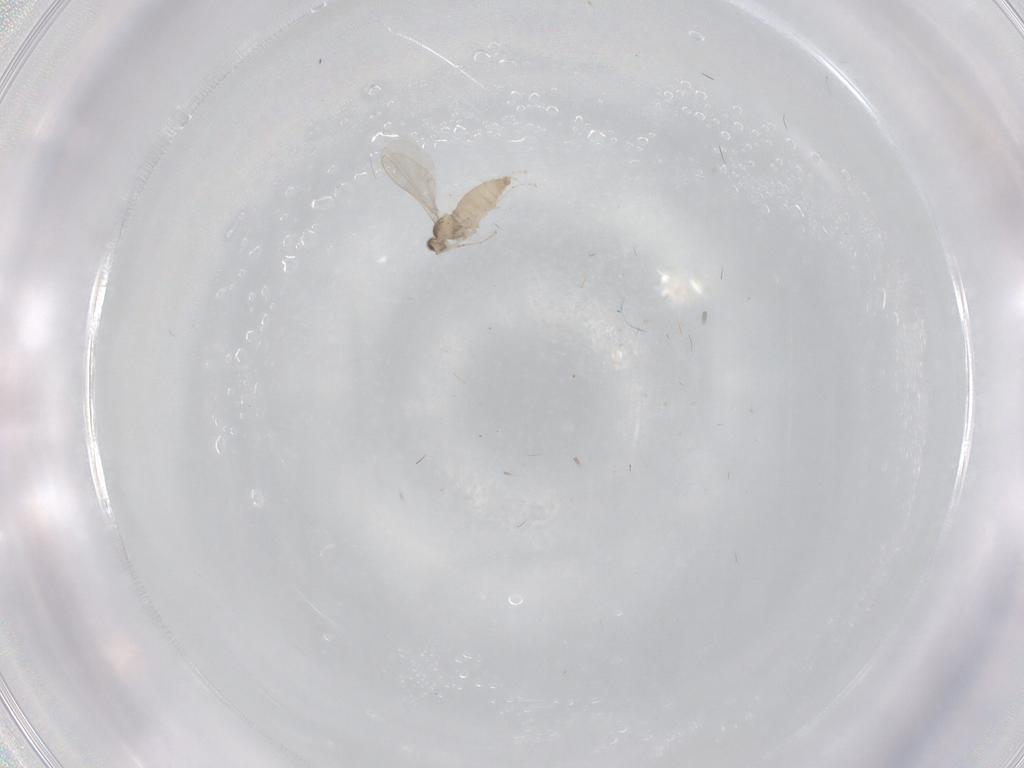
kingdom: Animalia
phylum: Arthropoda
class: Insecta
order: Diptera
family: Cecidomyiidae
